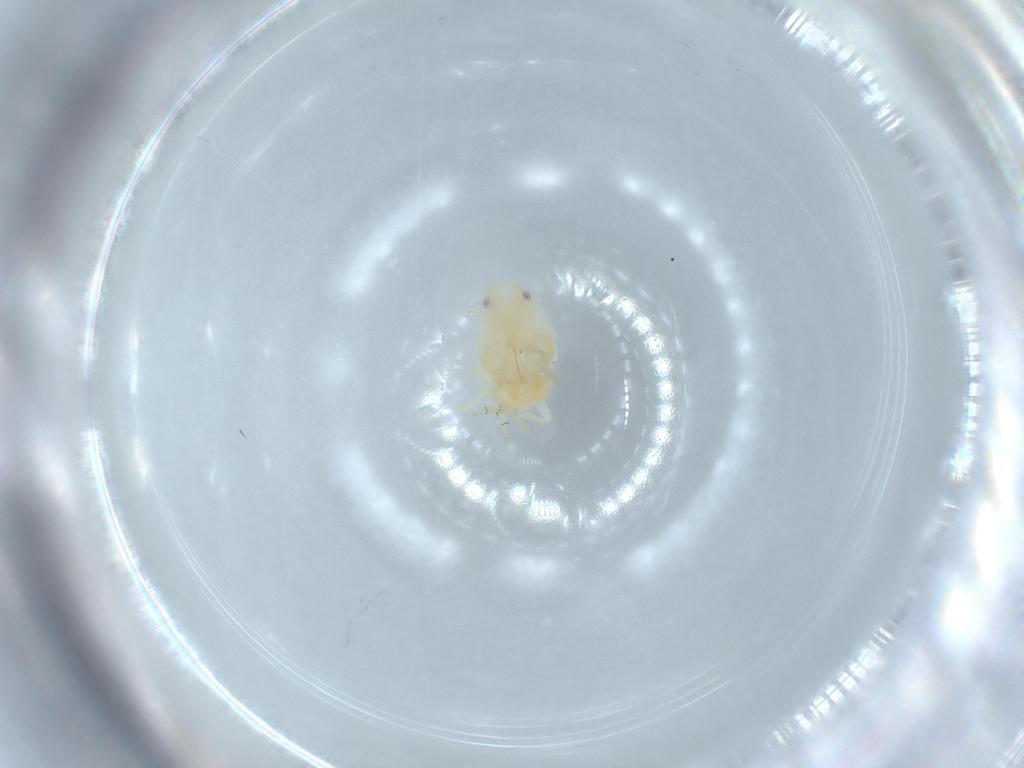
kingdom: Animalia
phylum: Arthropoda
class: Insecta
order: Hemiptera
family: Flatidae
